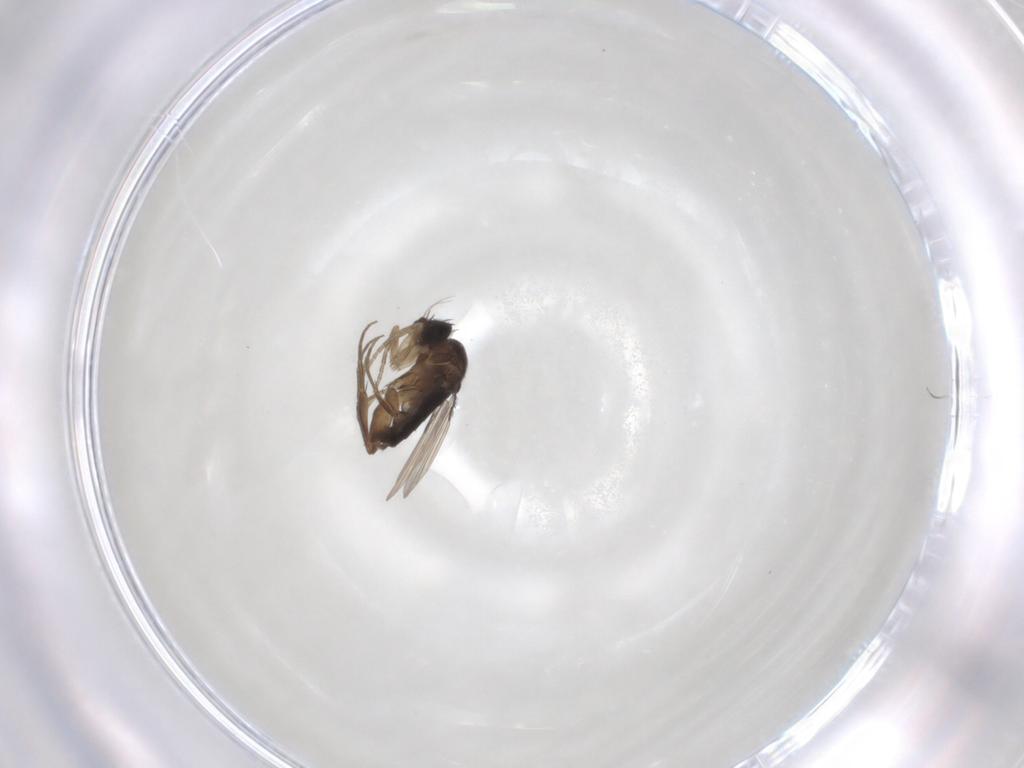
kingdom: Animalia
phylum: Arthropoda
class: Insecta
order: Diptera
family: Phoridae
